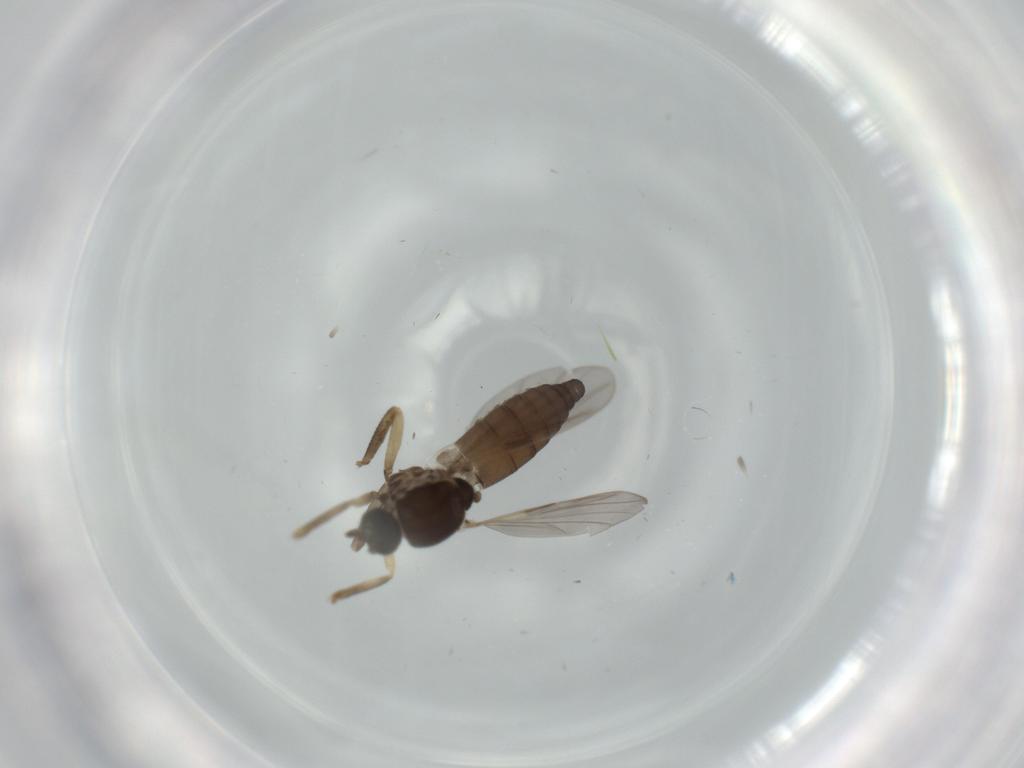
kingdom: Animalia
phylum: Arthropoda
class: Insecta
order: Diptera
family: Ceratopogonidae
